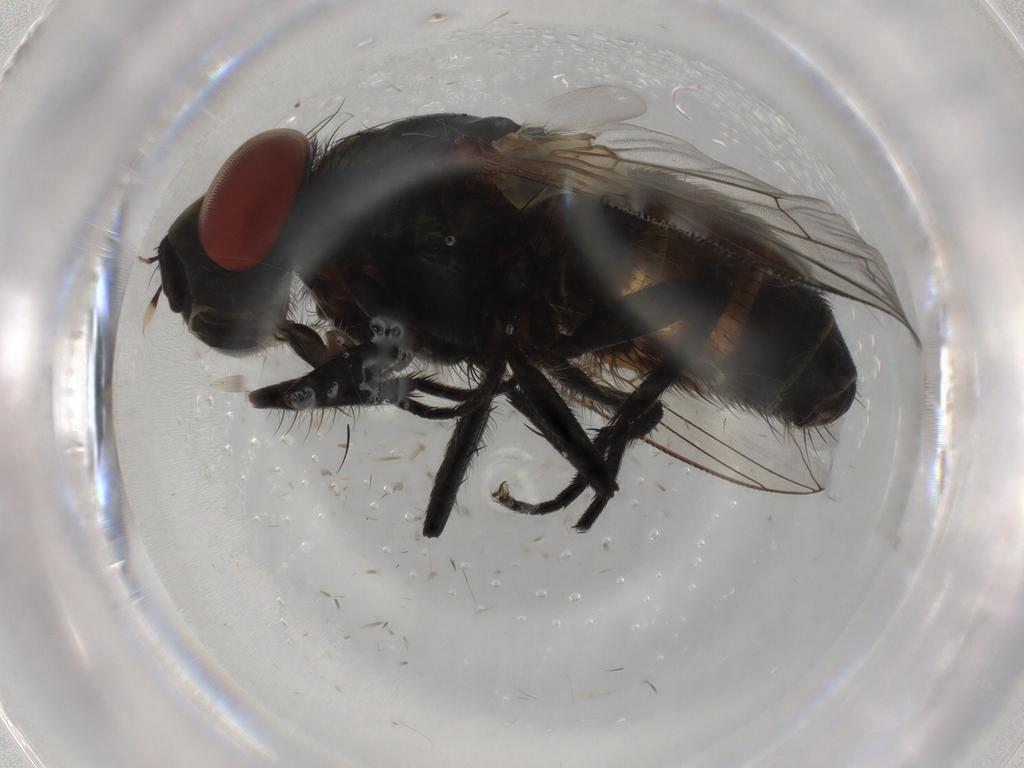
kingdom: Animalia
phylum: Arthropoda
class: Insecta
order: Diptera
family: Sarcophagidae
